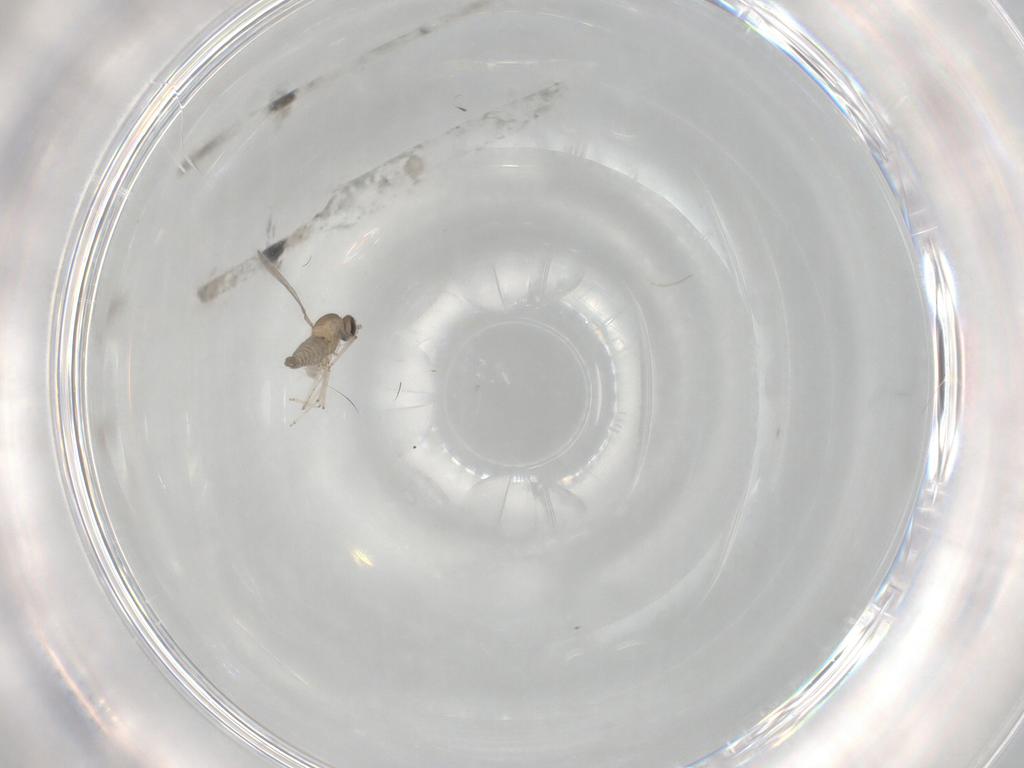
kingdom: Animalia
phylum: Arthropoda
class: Insecta
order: Diptera
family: Cecidomyiidae
